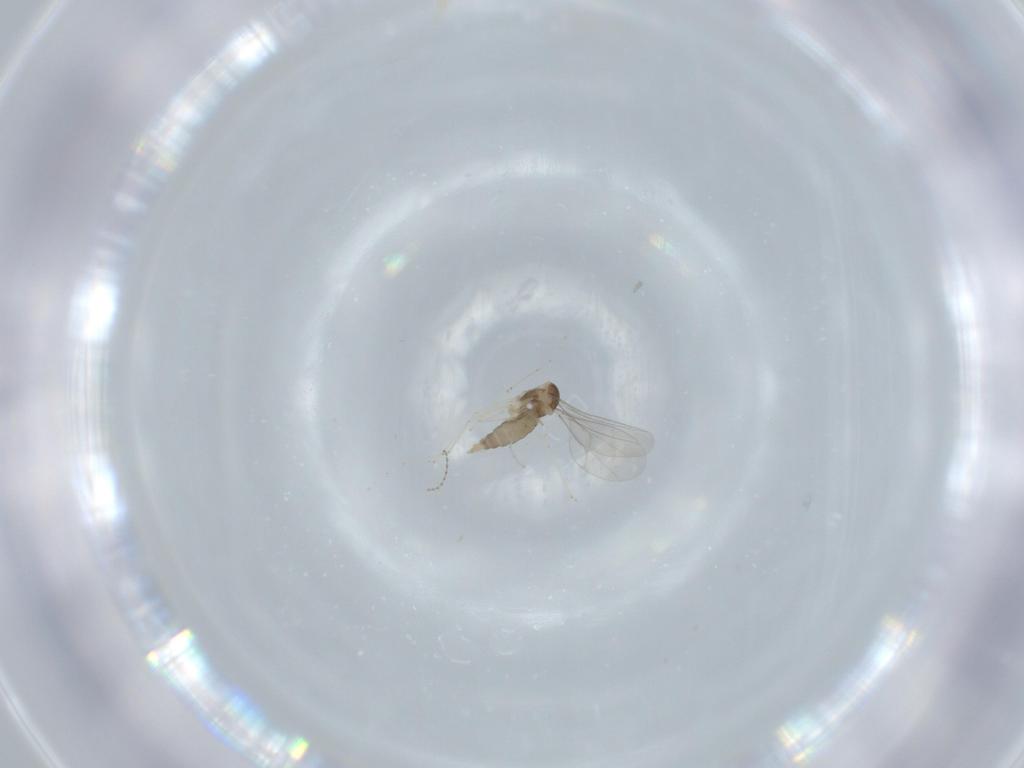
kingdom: Animalia
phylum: Arthropoda
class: Insecta
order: Diptera
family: Cecidomyiidae
